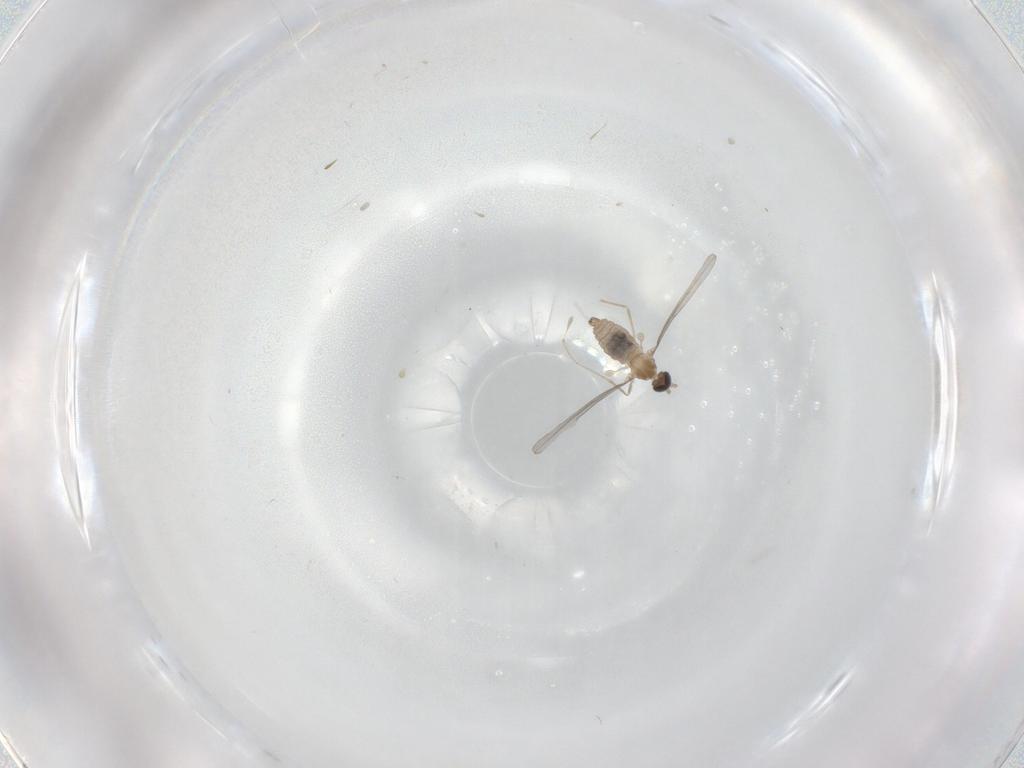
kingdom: Animalia
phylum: Arthropoda
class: Insecta
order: Diptera
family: Cecidomyiidae
